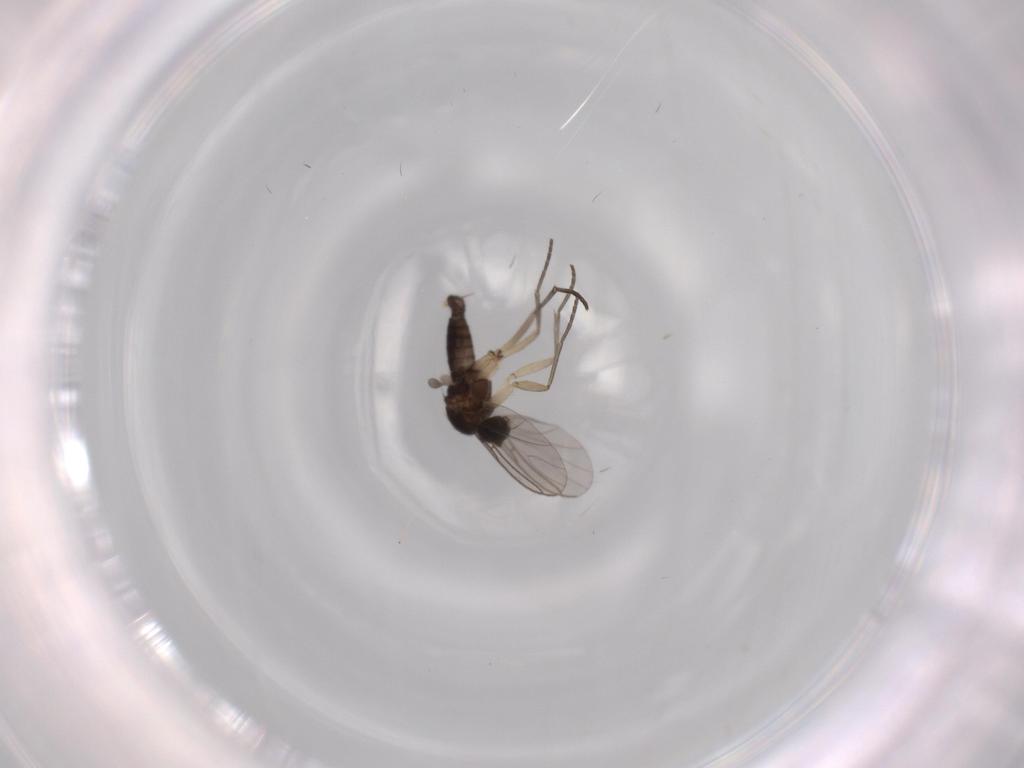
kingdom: Animalia
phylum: Arthropoda
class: Insecta
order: Diptera
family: Sciaridae
